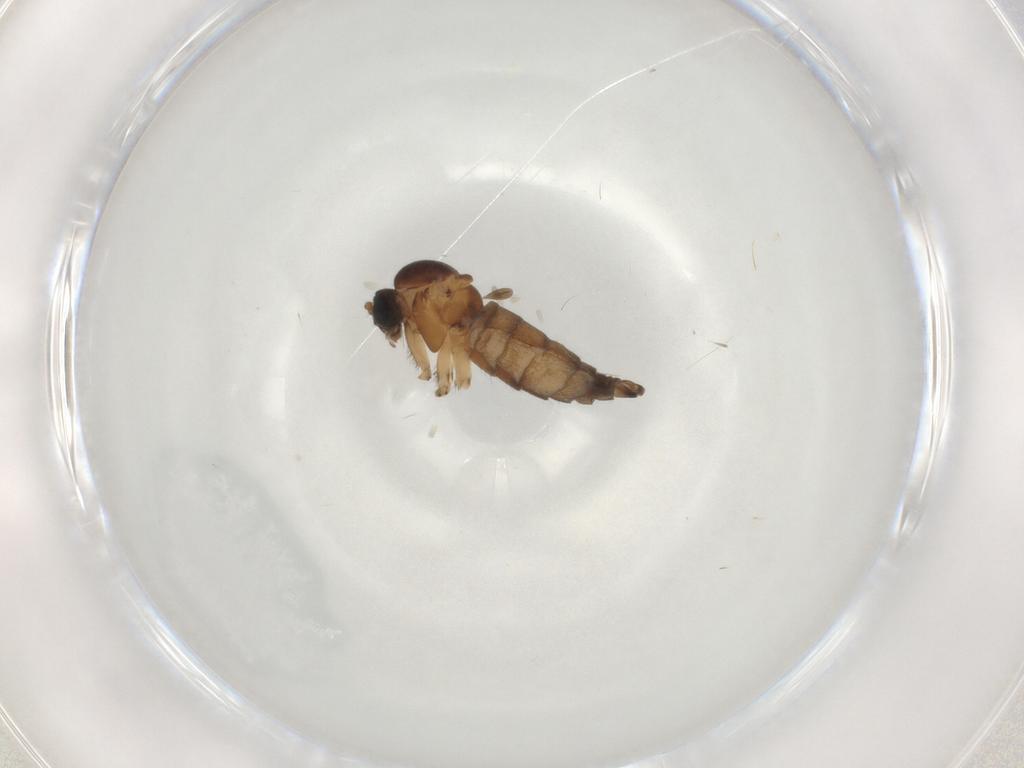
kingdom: Animalia
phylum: Arthropoda
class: Insecta
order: Diptera
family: Sciaridae
